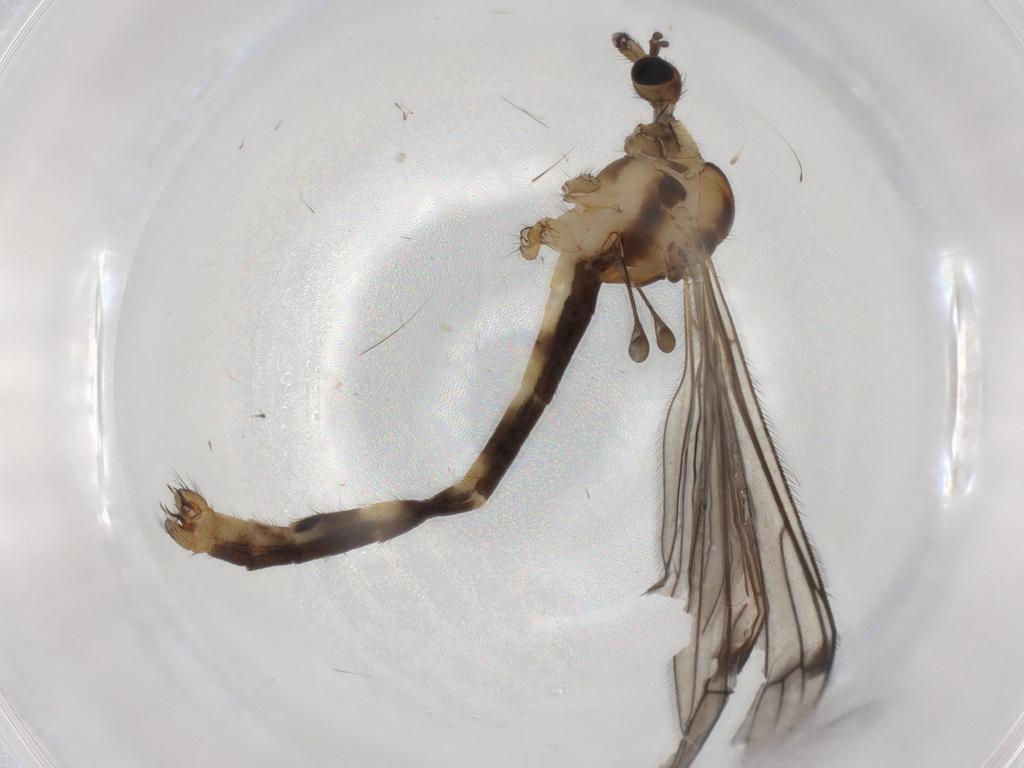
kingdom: Animalia
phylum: Arthropoda
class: Insecta
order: Diptera
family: Limoniidae
